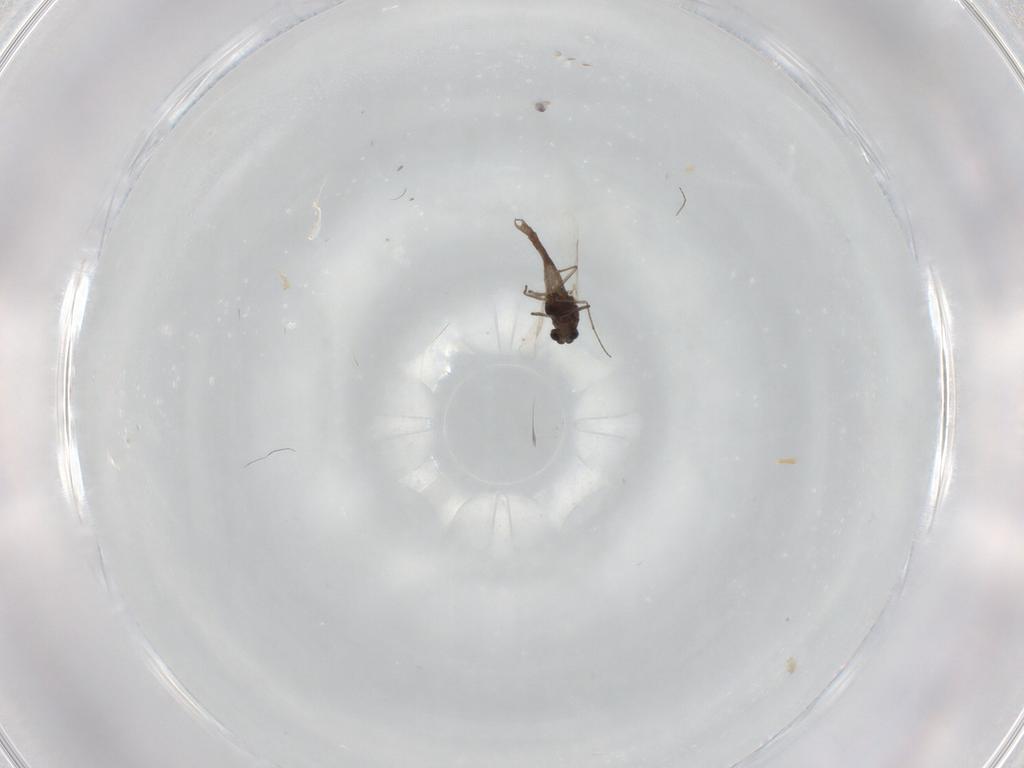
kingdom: Animalia
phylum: Arthropoda
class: Insecta
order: Diptera
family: Chironomidae
